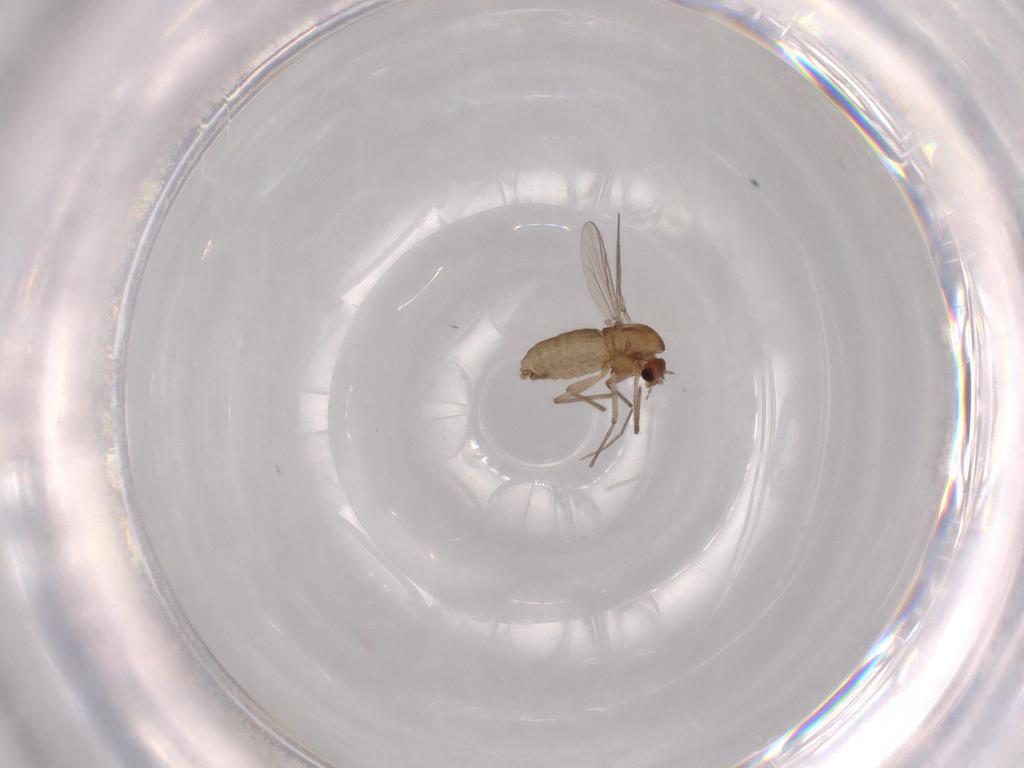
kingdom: Animalia
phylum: Arthropoda
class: Insecta
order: Diptera
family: Chironomidae
